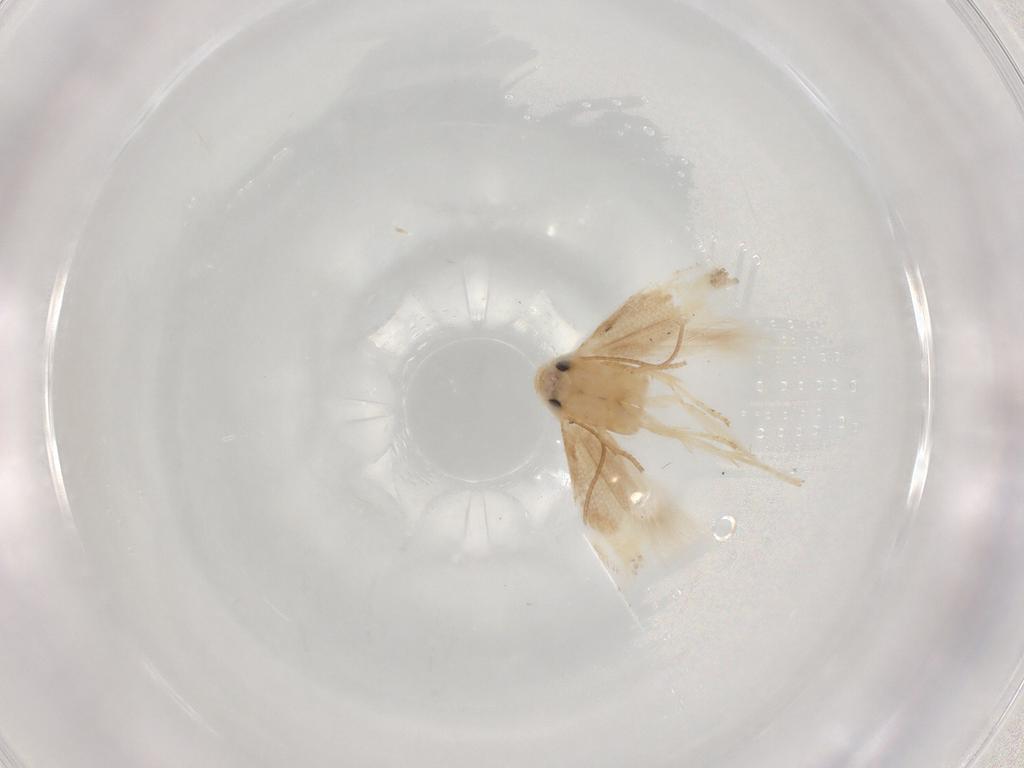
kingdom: Animalia
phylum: Arthropoda
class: Insecta
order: Lepidoptera
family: Lyonetiidae
